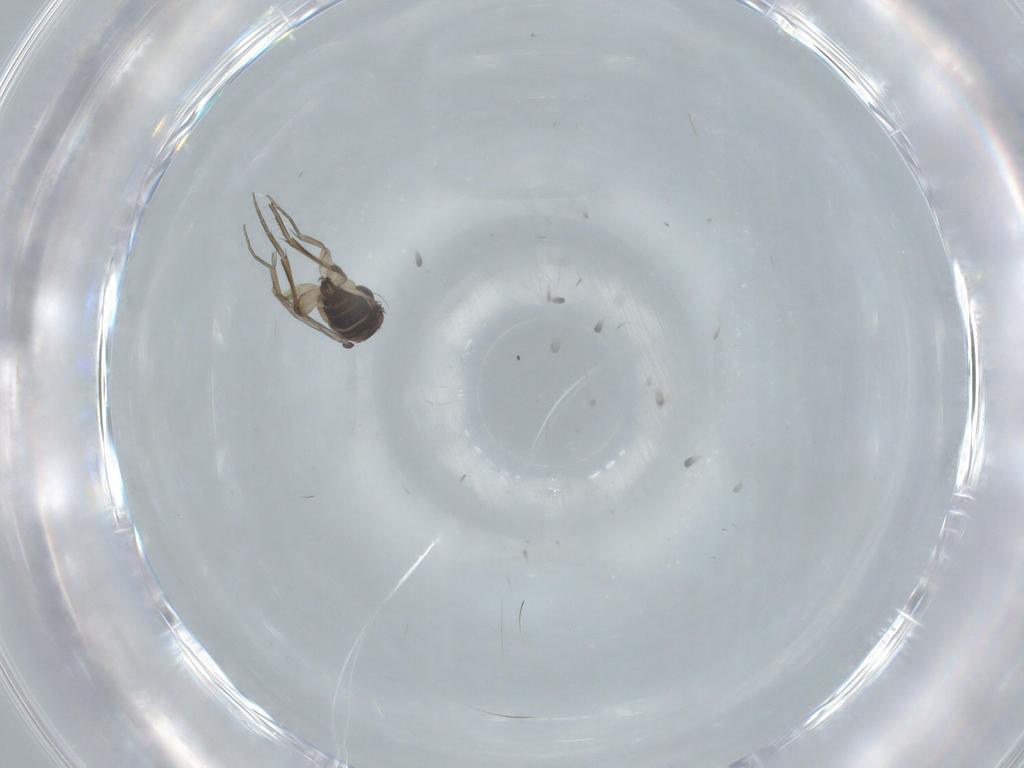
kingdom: Animalia
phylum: Arthropoda
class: Insecta
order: Diptera
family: Phoridae
